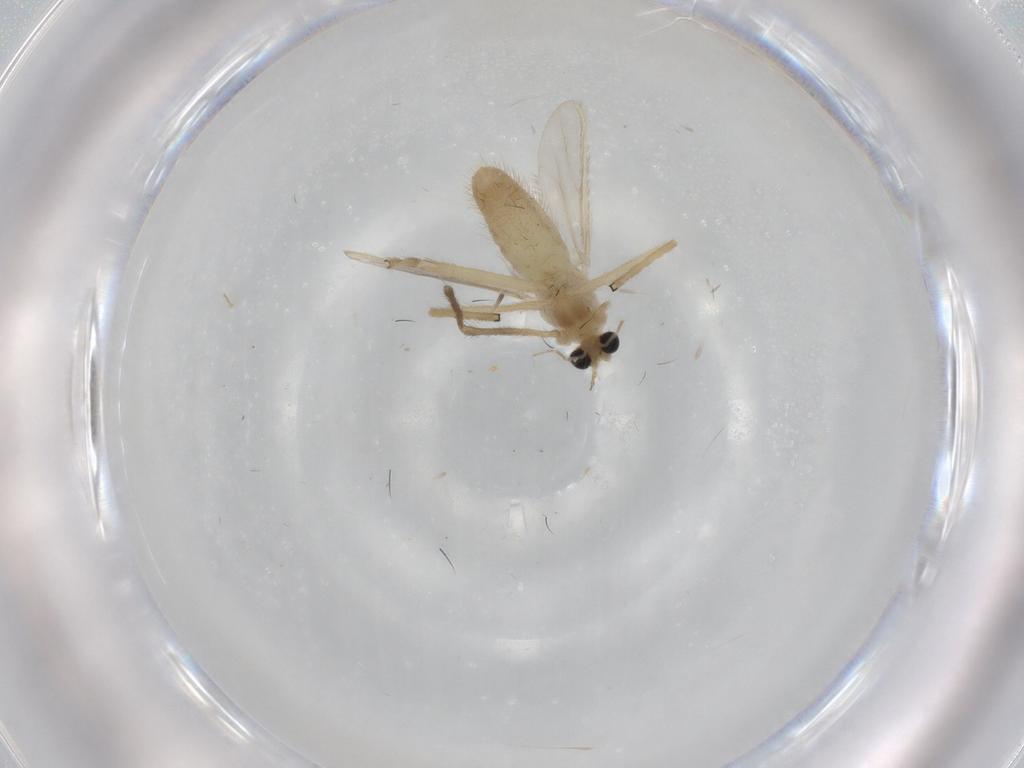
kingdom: Animalia
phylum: Arthropoda
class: Insecta
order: Diptera
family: Chironomidae
